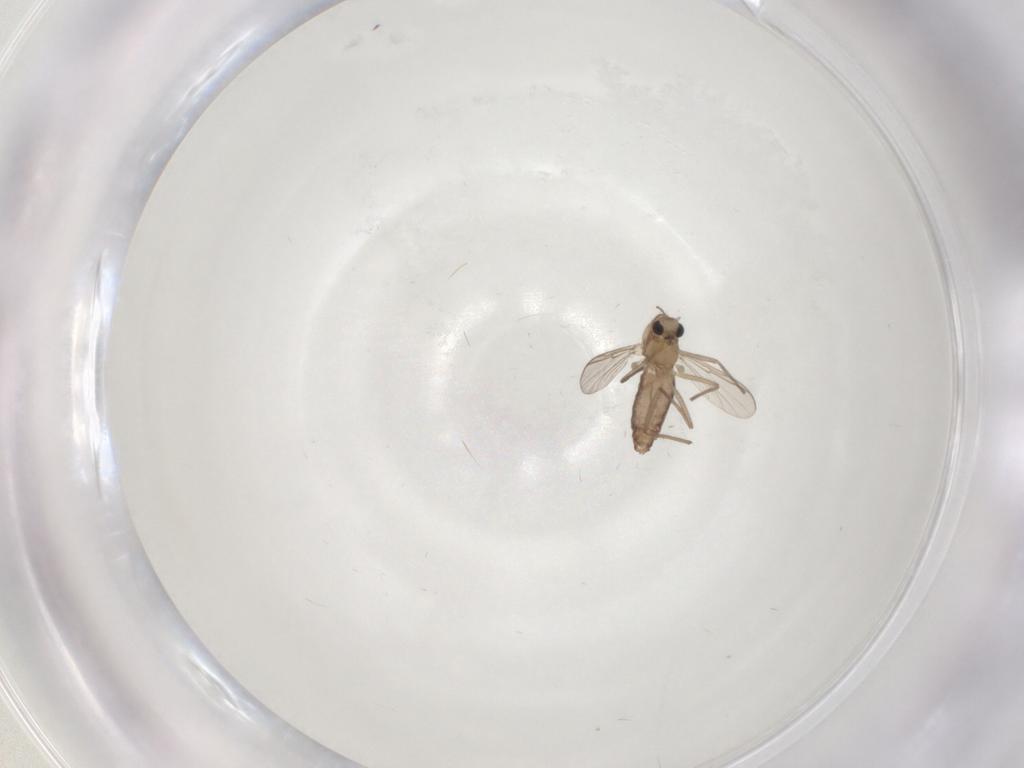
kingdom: Animalia
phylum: Arthropoda
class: Insecta
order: Diptera
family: Phoridae
